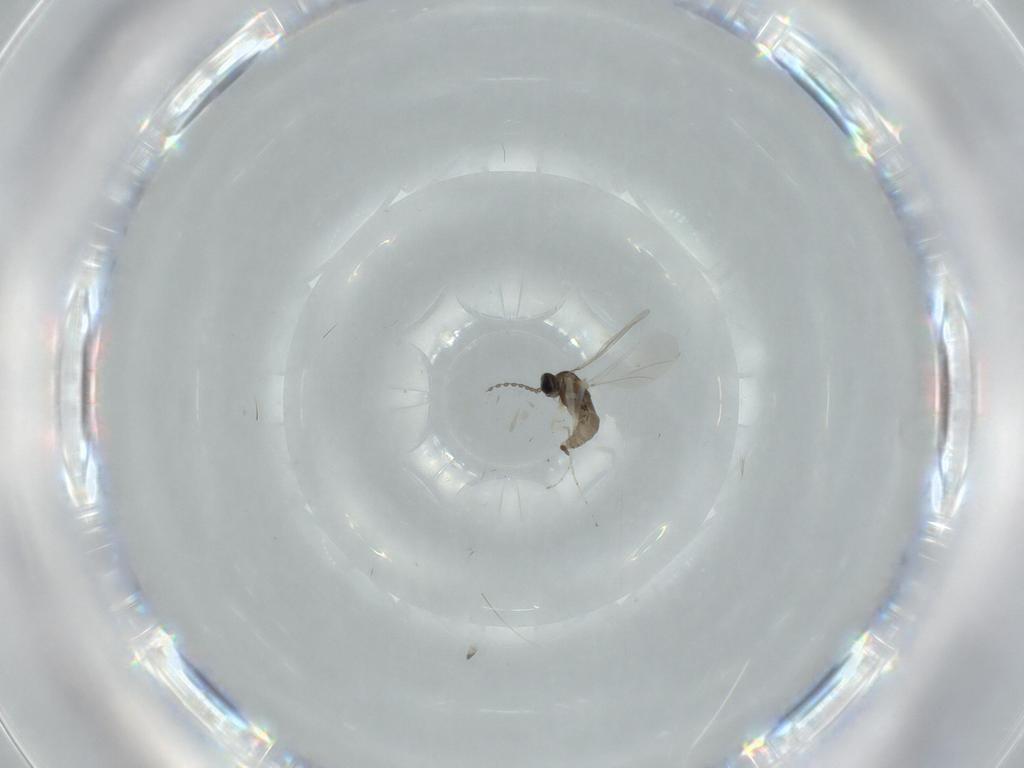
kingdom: Animalia
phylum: Arthropoda
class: Insecta
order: Diptera
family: Cecidomyiidae
